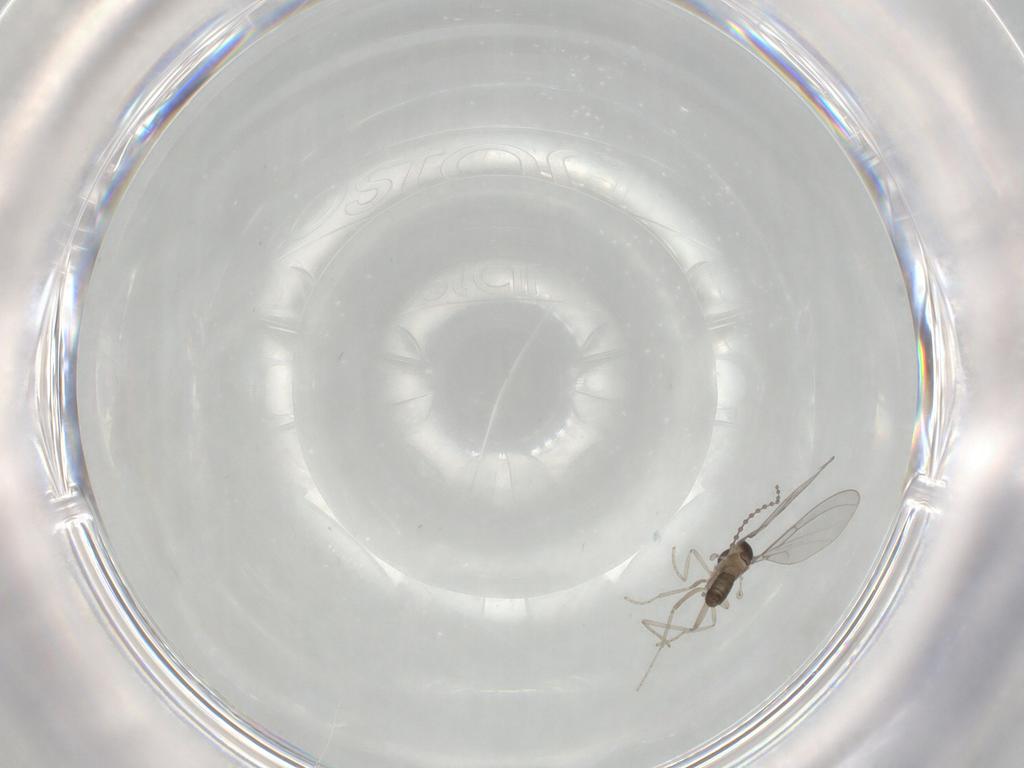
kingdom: Animalia
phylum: Arthropoda
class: Insecta
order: Diptera
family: Cecidomyiidae
